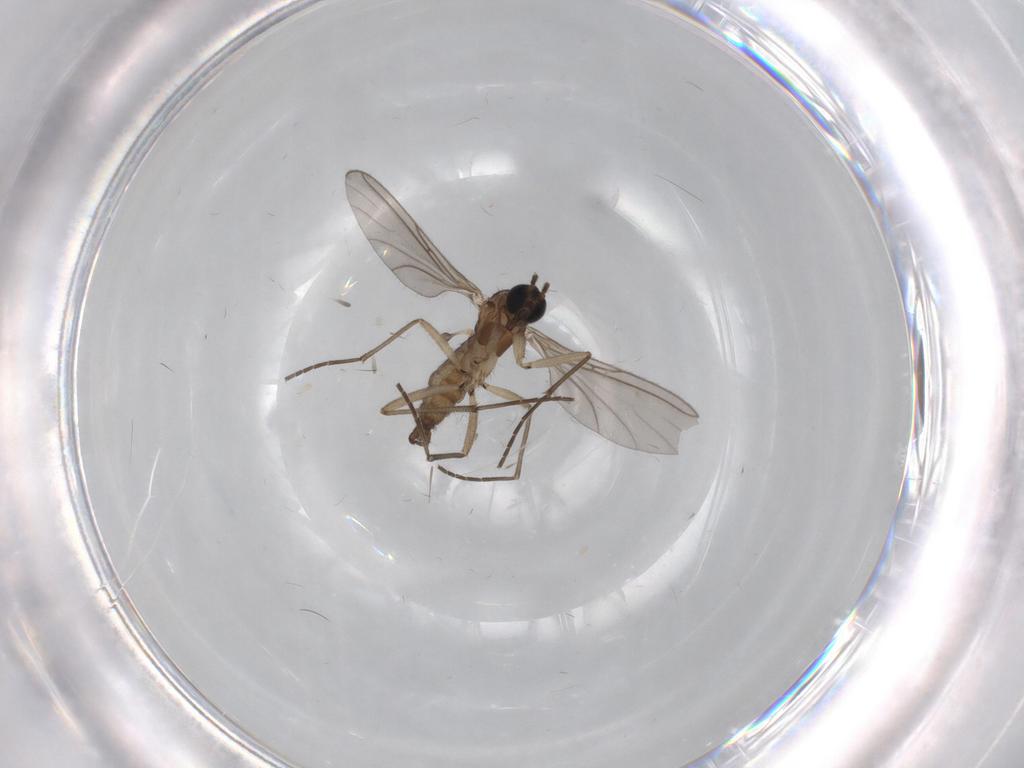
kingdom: Animalia
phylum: Arthropoda
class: Insecta
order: Diptera
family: Sciaridae
